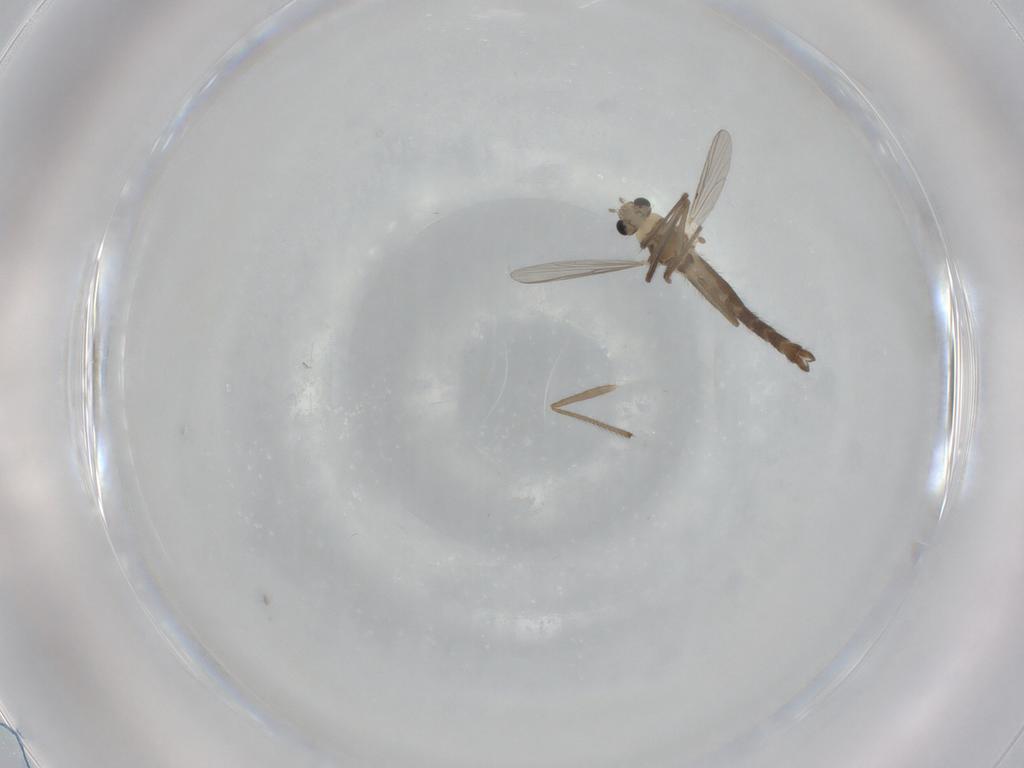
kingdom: Animalia
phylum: Arthropoda
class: Insecta
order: Diptera
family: Chironomidae
